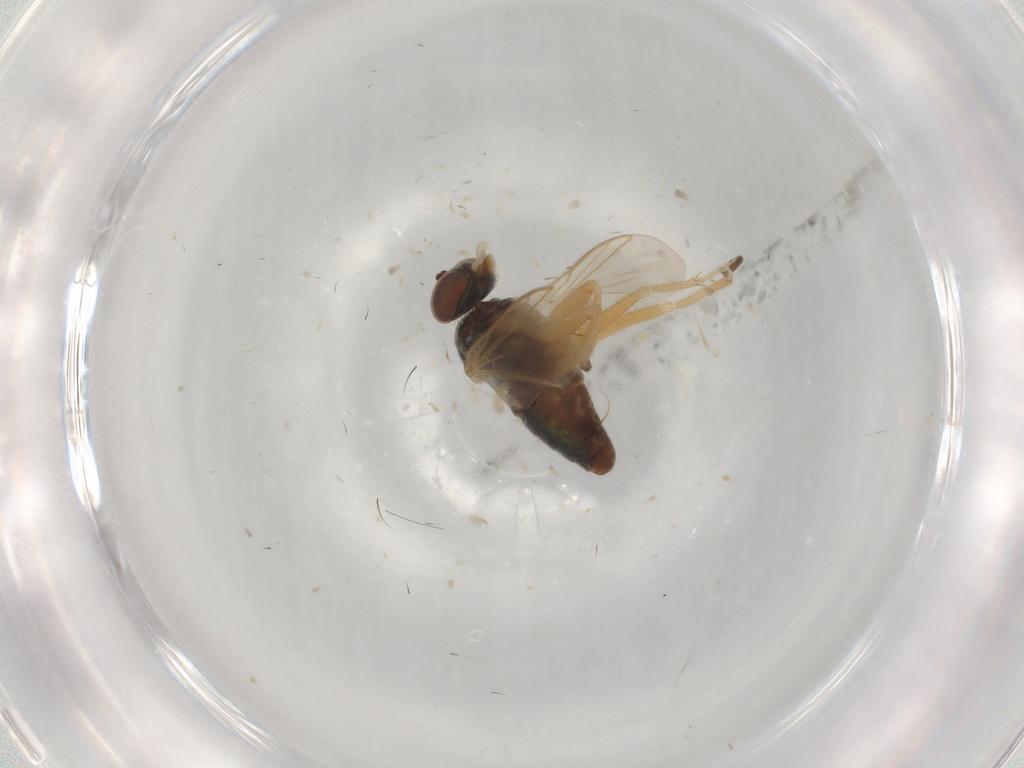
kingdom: Animalia
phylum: Arthropoda
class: Insecta
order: Diptera
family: Dolichopodidae
